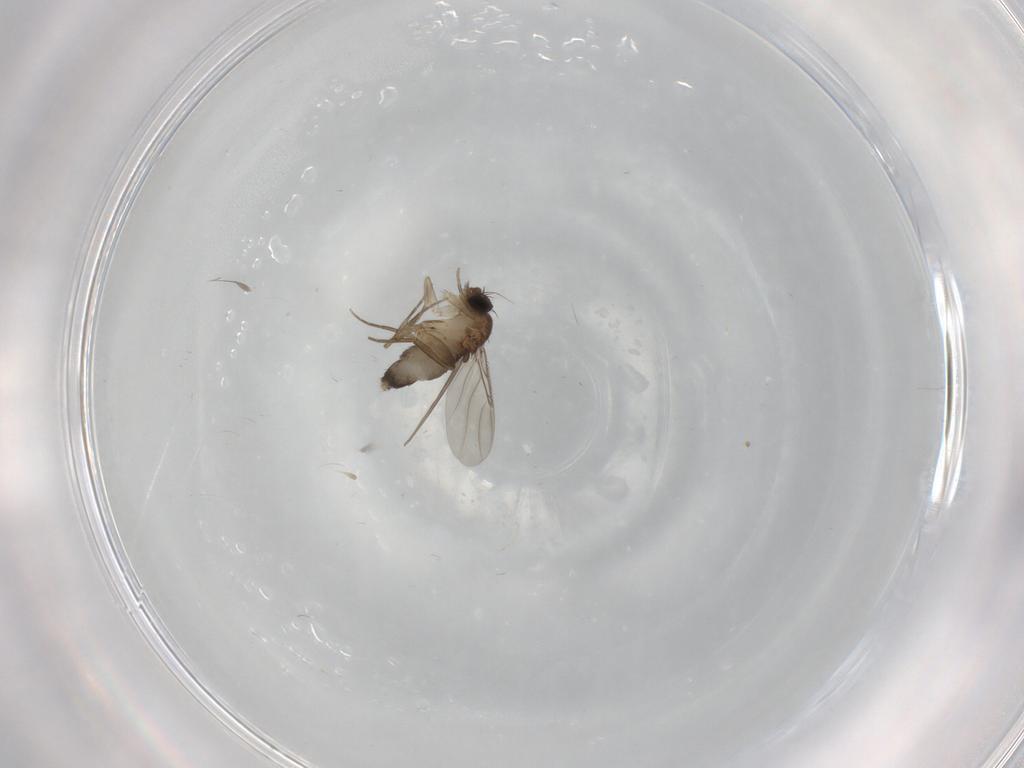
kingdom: Animalia
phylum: Arthropoda
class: Insecta
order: Diptera
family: Phoridae
